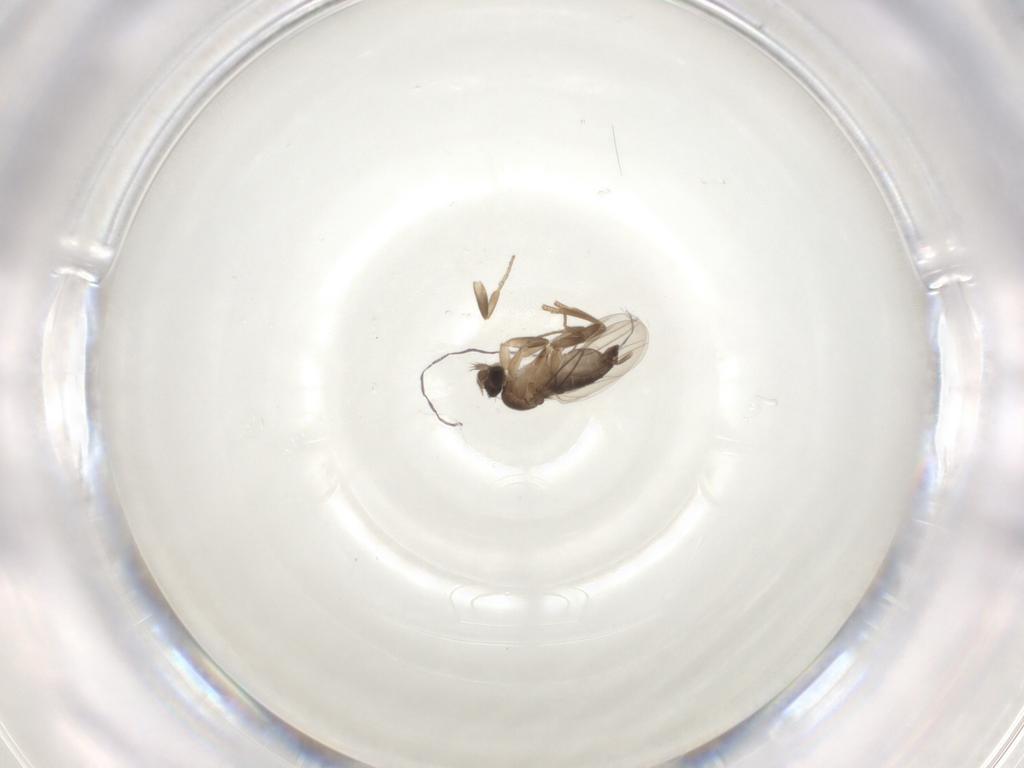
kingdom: Animalia
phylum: Arthropoda
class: Insecta
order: Diptera
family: Phoridae
